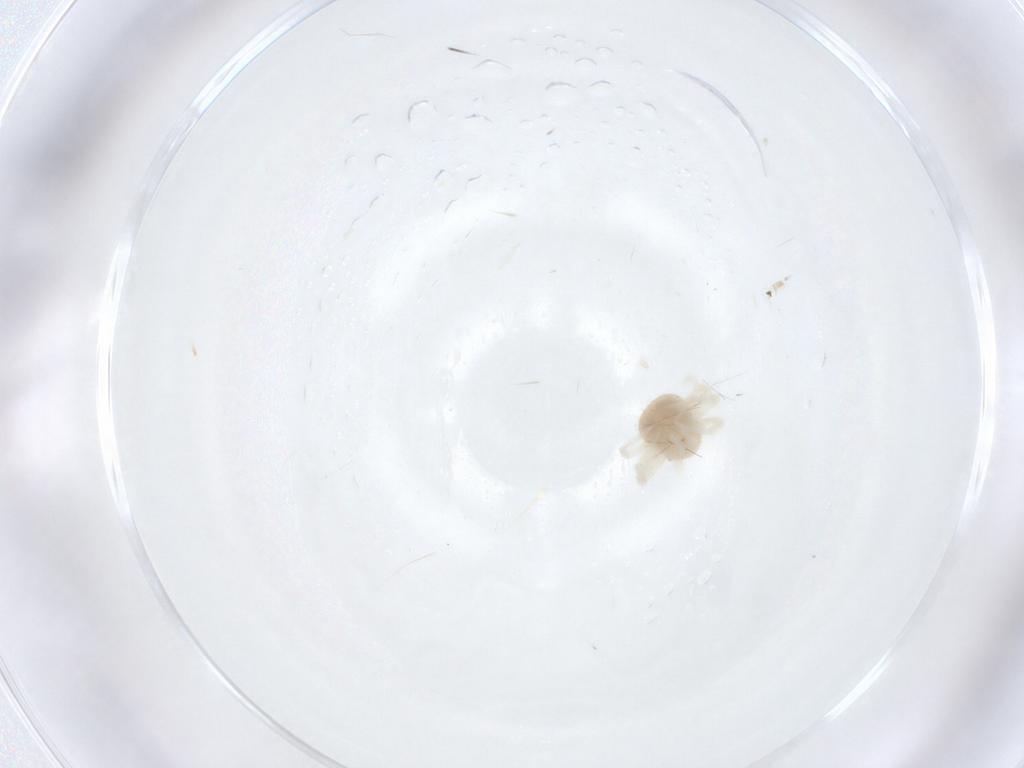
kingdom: Animalia
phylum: Arthropoda
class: Arachnida
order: Trombidiformes
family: Anystidae
